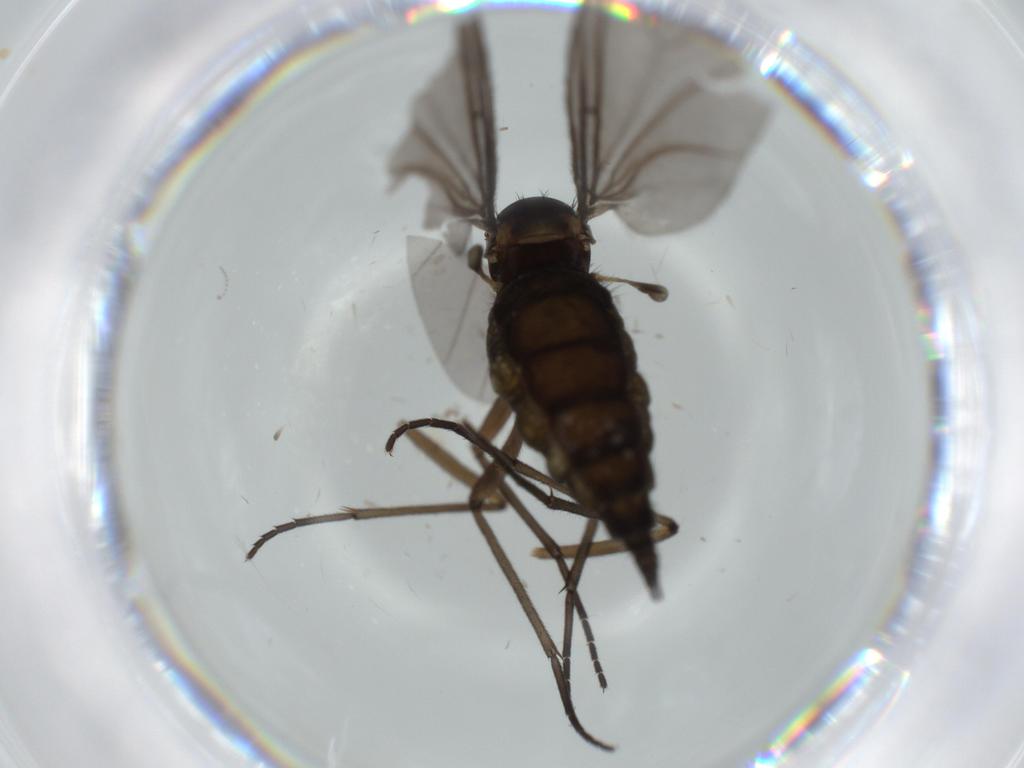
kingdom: Animalia
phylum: Arthropoda
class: Insecta
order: Diptera
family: Sciaridae
